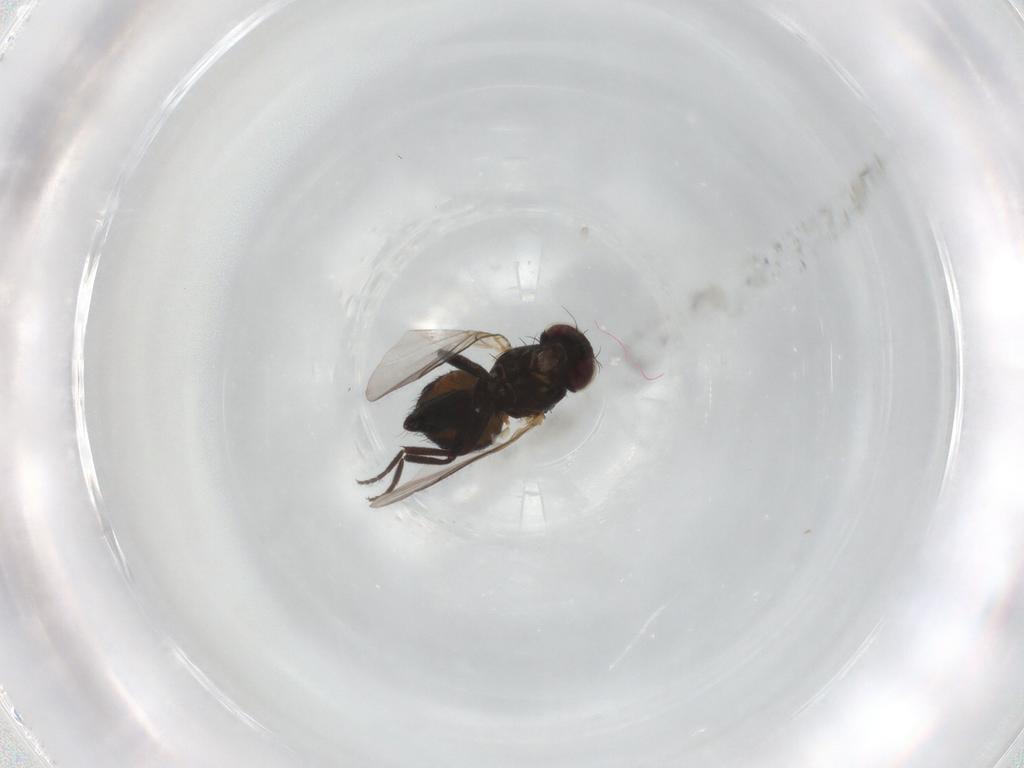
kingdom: Animalia
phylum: Arthropoda
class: Insecta
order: Diptera
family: Agromyzidae
